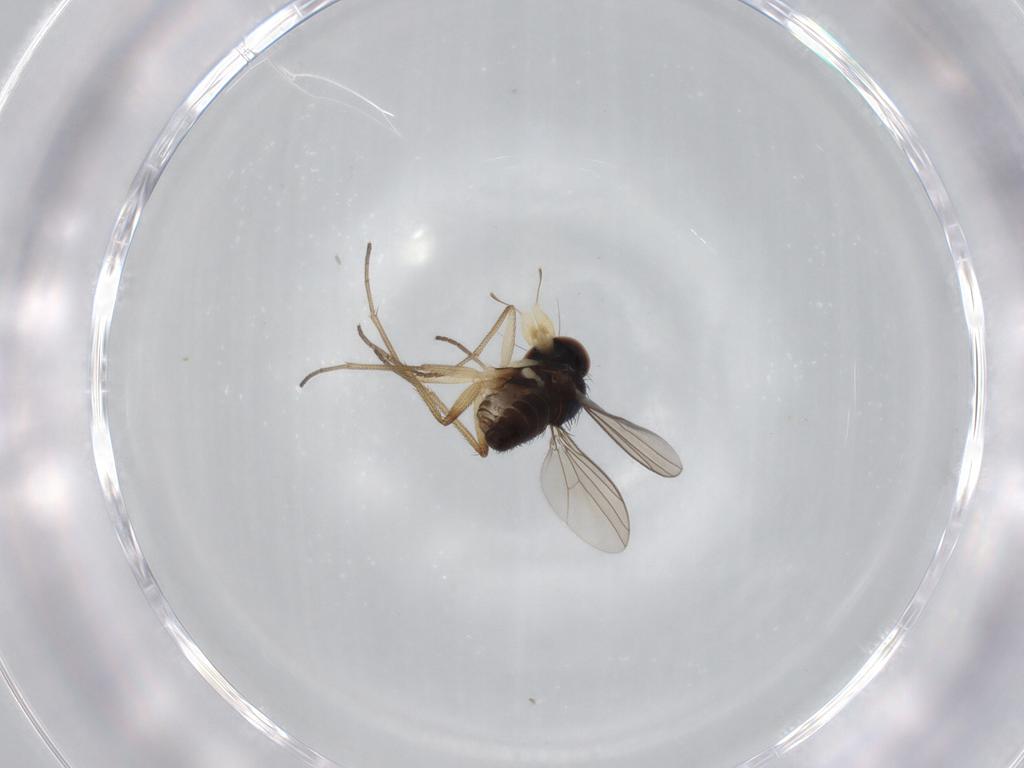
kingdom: Animalia
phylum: Arthropoda
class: Insecta
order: Diptera
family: Dolichopodidae
